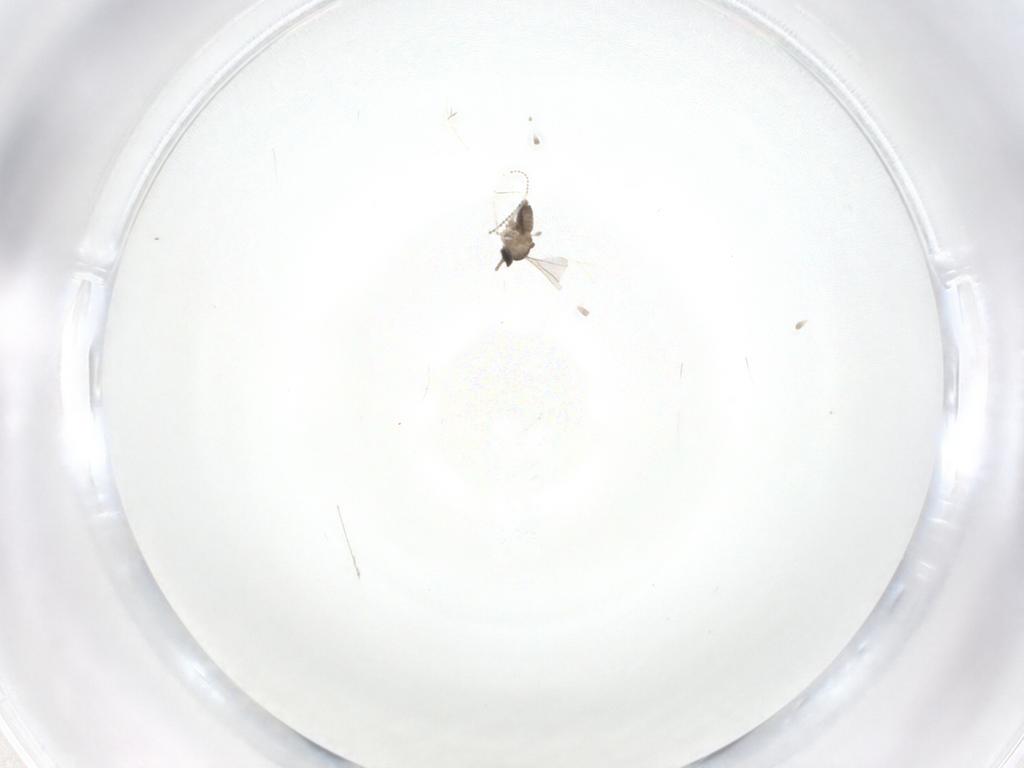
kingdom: Animalia
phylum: Arthropoda
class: Insecta
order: Diptera
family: Cecidomyiidae
